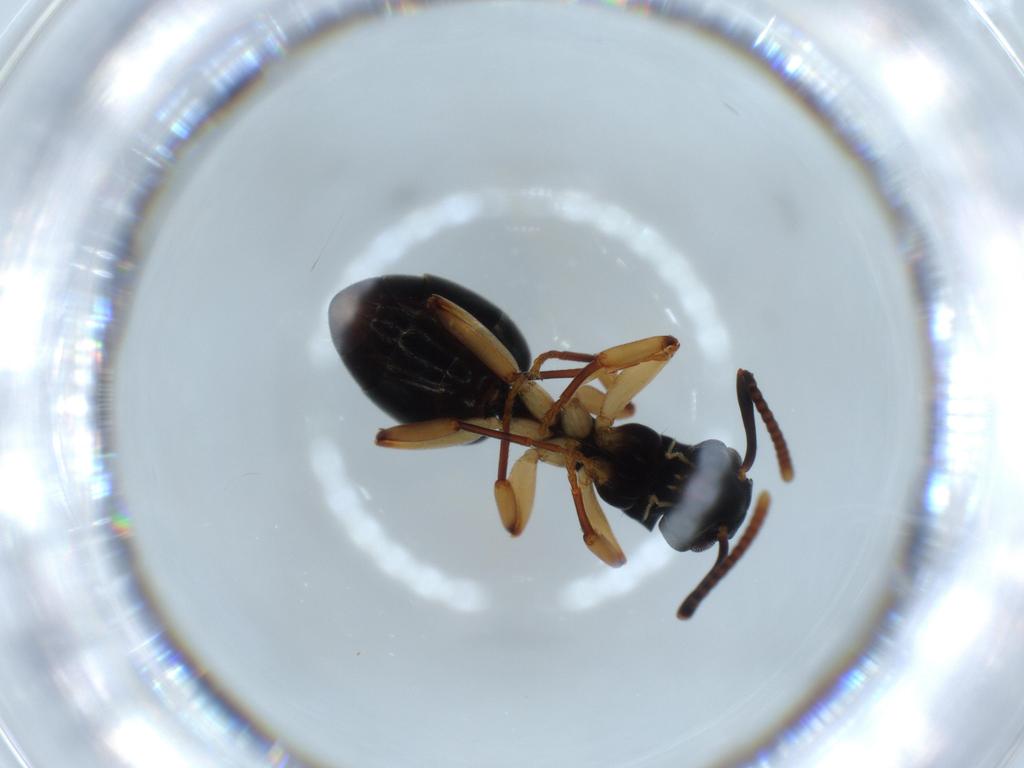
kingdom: Animalia
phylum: Arthropoda
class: Insecta
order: Hymenoptera
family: Formicidae
